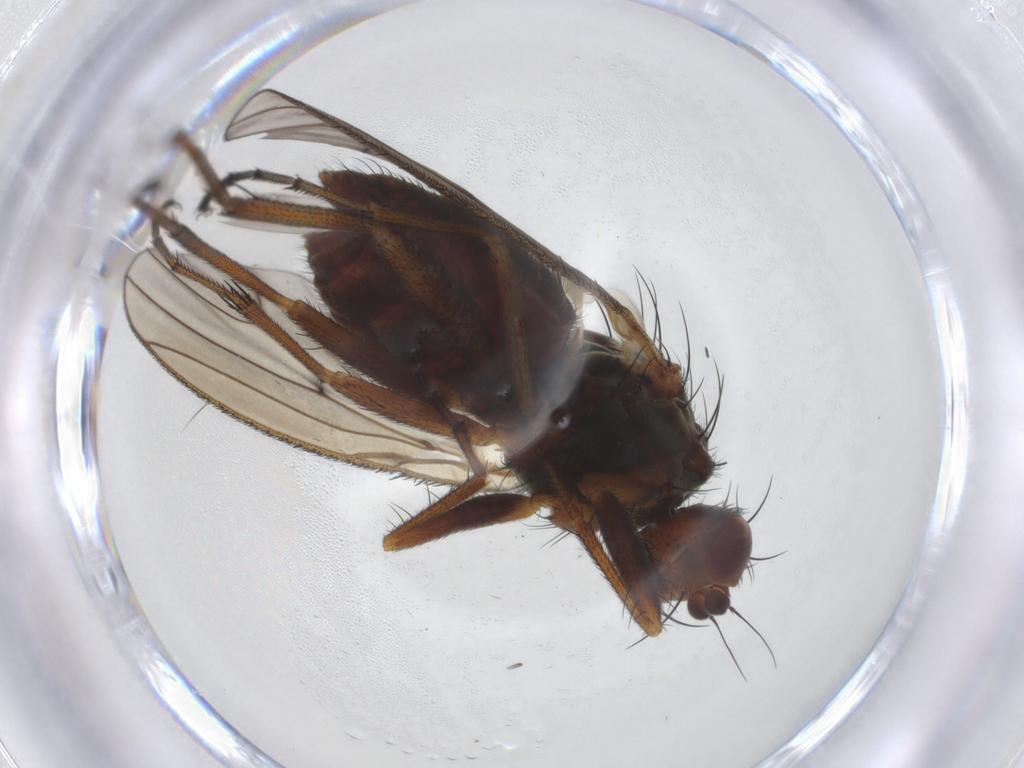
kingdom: Animalia
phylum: Arthropoda
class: Insecta
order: Diptera
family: Heleomyzidae
